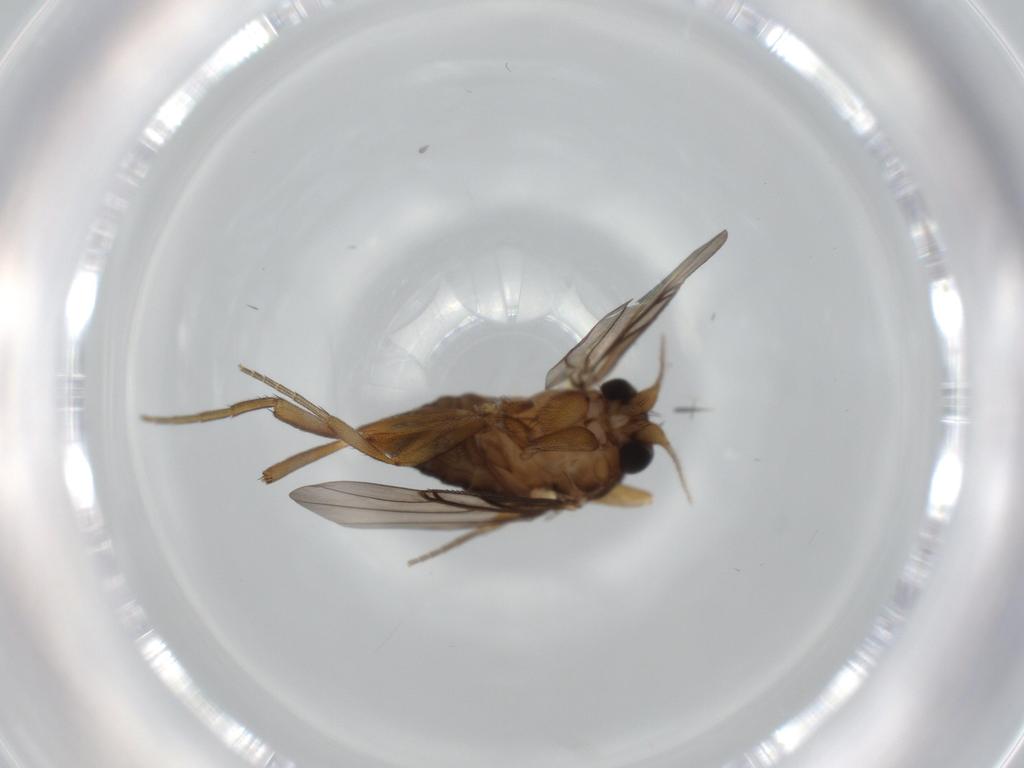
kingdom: Animalia
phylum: Arthropoda
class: Insecta
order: Diptera
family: Phoridae
